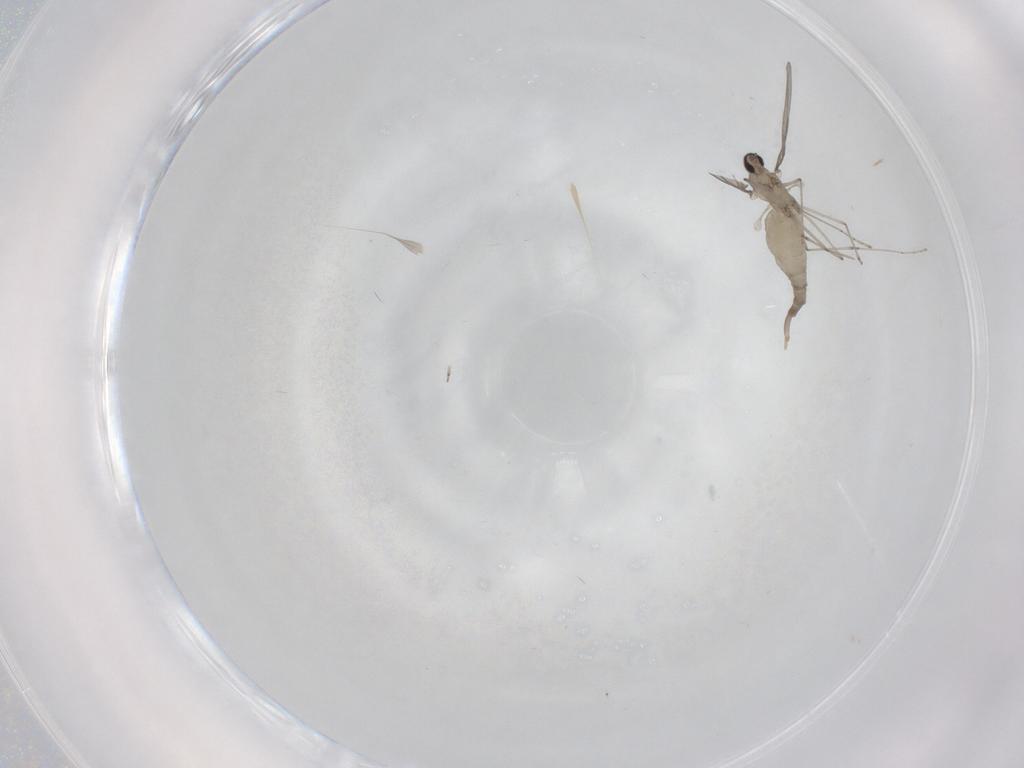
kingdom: Animalia
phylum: Arthropoda
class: Insecta
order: Diptera
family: Cecidomyiidae
